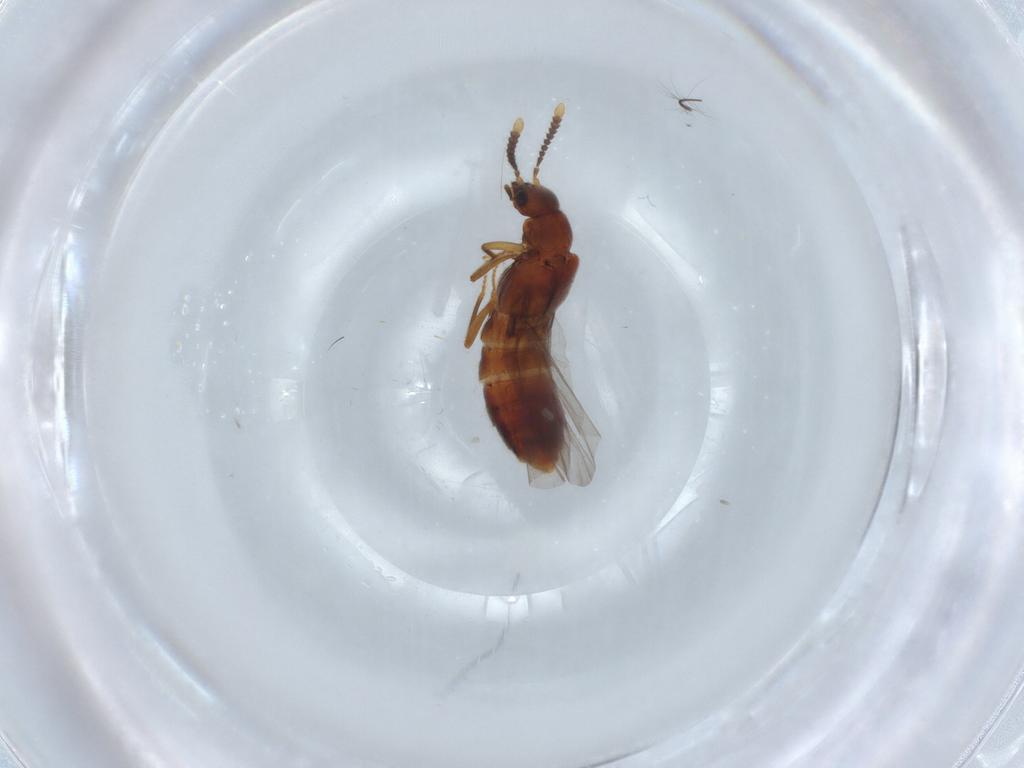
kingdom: Animalia
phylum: Arthropoda
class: Insecta
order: Coleoptera
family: Staphylinidae
